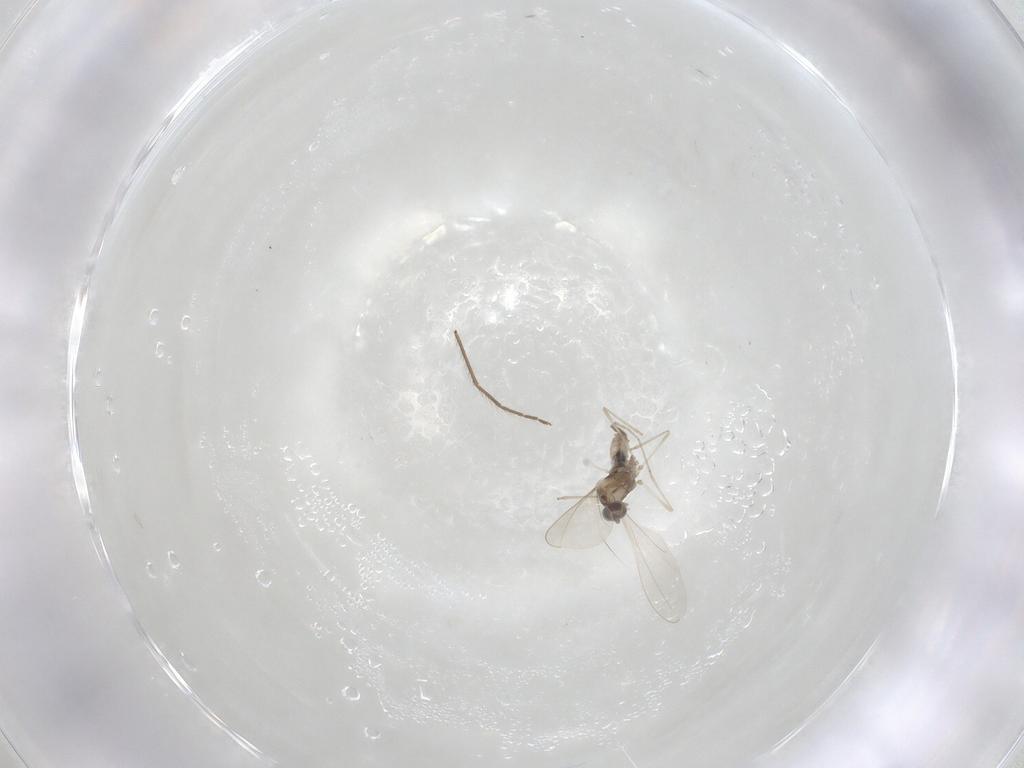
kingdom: Animalia
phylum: Arthropoda
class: Insecta
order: Diptera
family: Chironomidae
